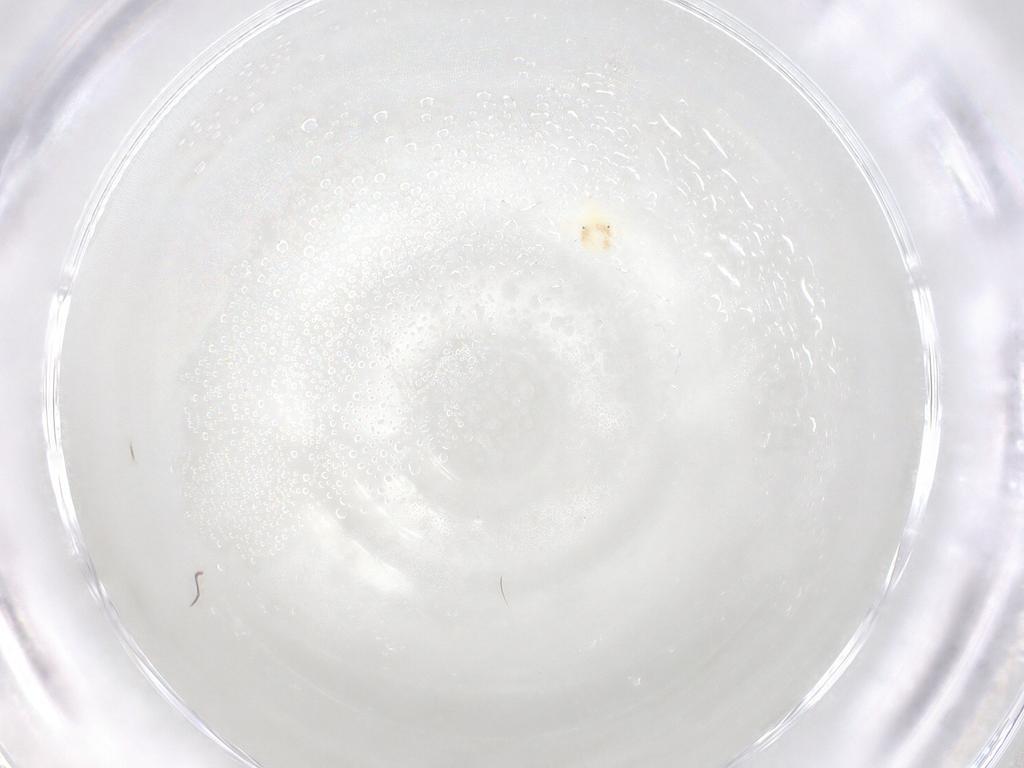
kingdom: Animalia
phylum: Arthropoda
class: Arachnida
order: Trombidiformes
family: Anystidae
